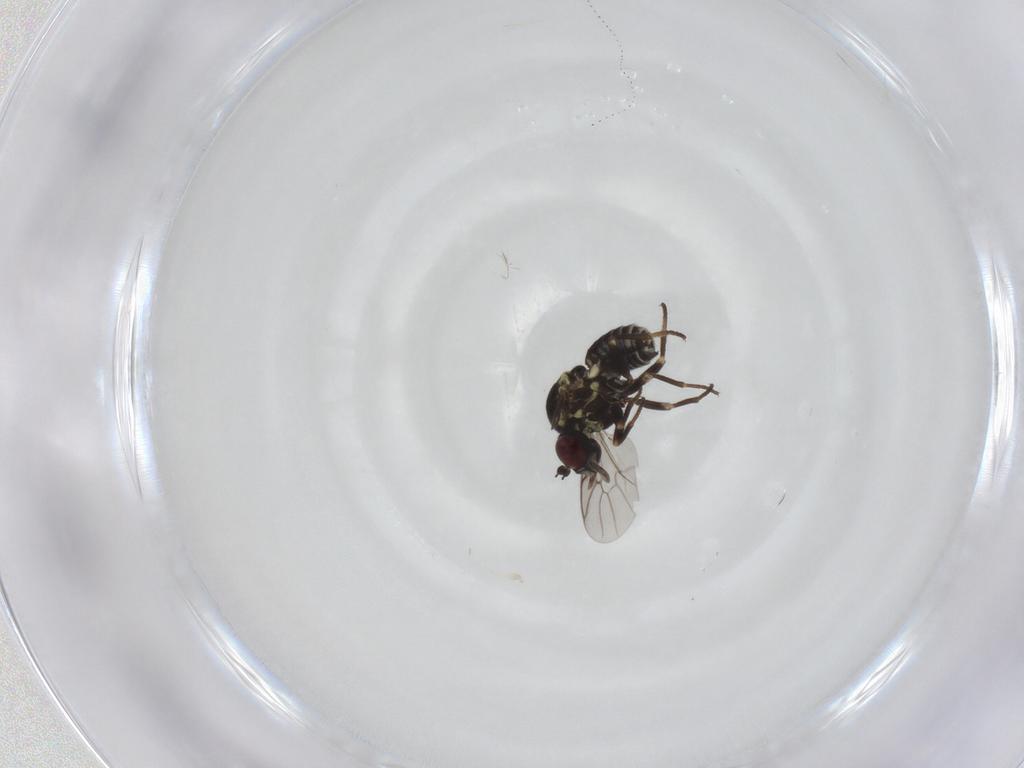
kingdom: Animalia
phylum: Arthropoda
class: Insecta
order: Diptera
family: Bombyliidae
